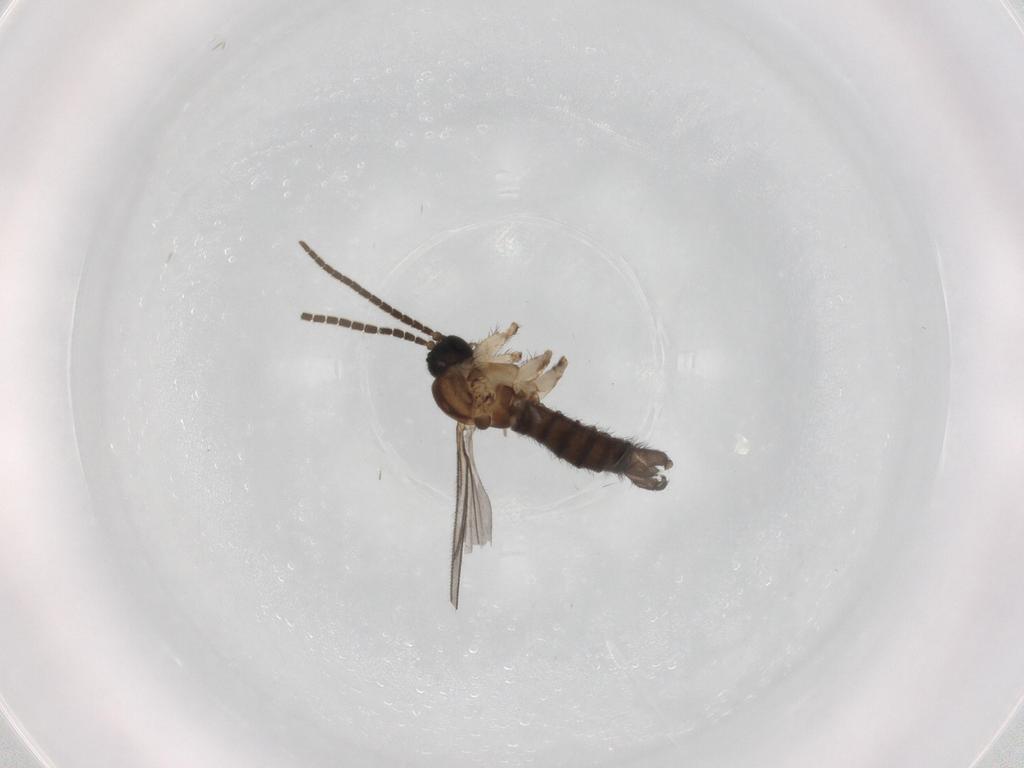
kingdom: Animalia
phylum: Arthropoda
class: Insecta
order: Diptera
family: Sciaridae
